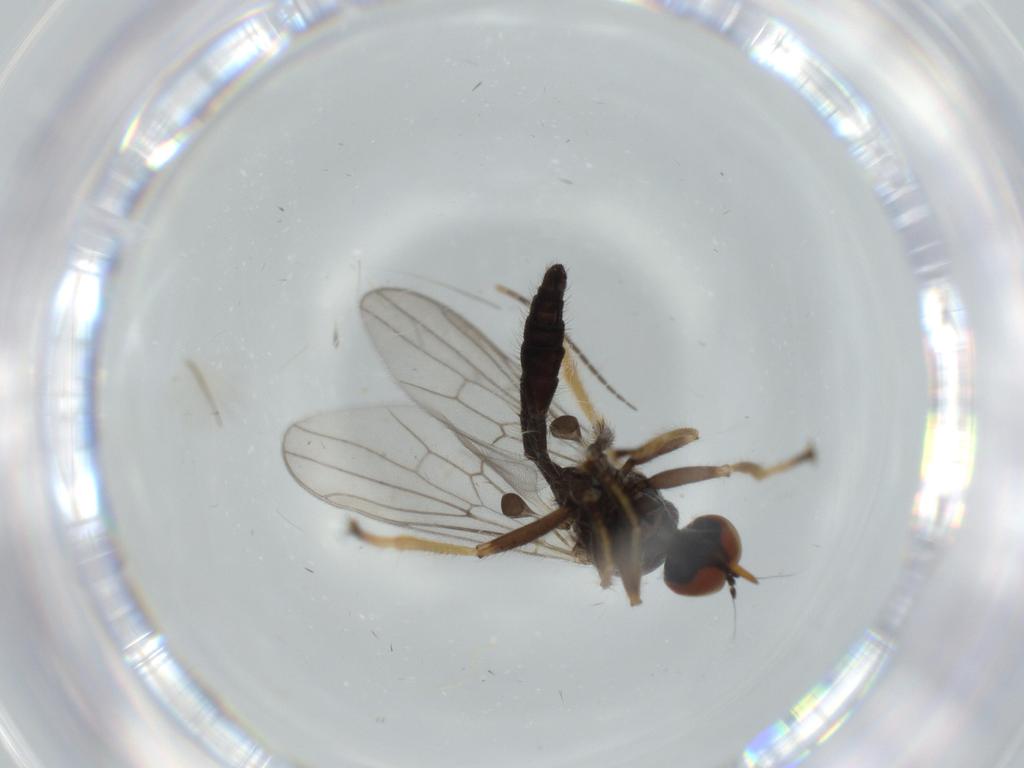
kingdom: Animalia
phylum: Arthropoda
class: Insecta
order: Diptera
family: Cecidomyiidae
